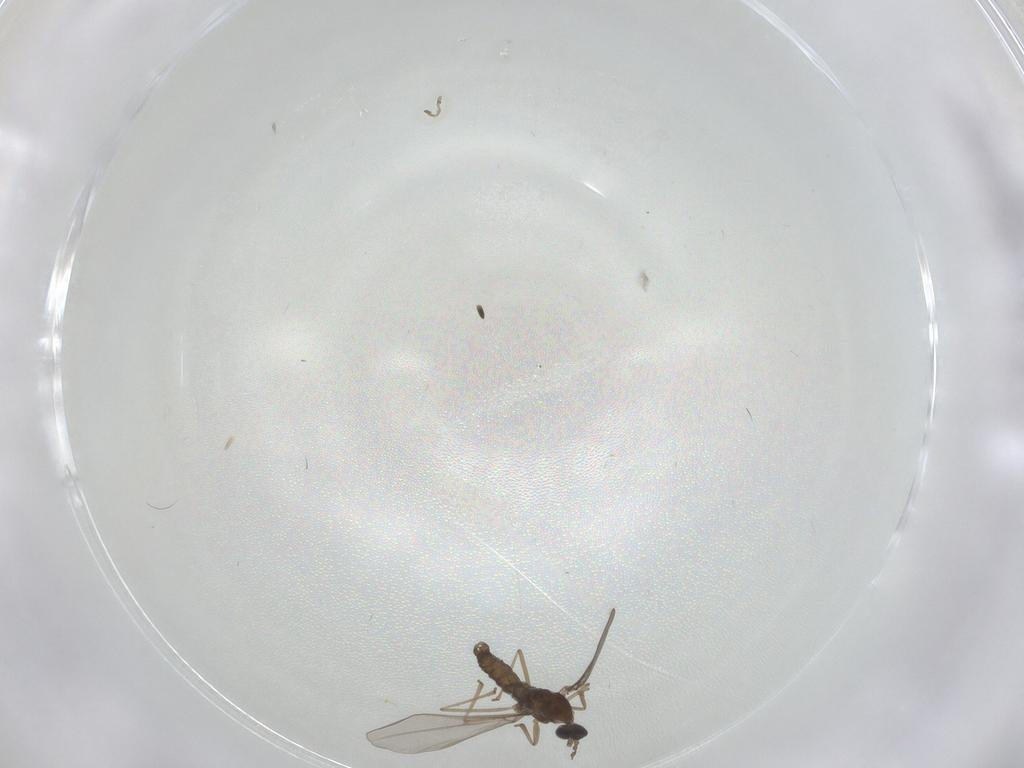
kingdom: Animalia
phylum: Arthropoda
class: Insecta
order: Diptera
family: Cecidomyiidae
